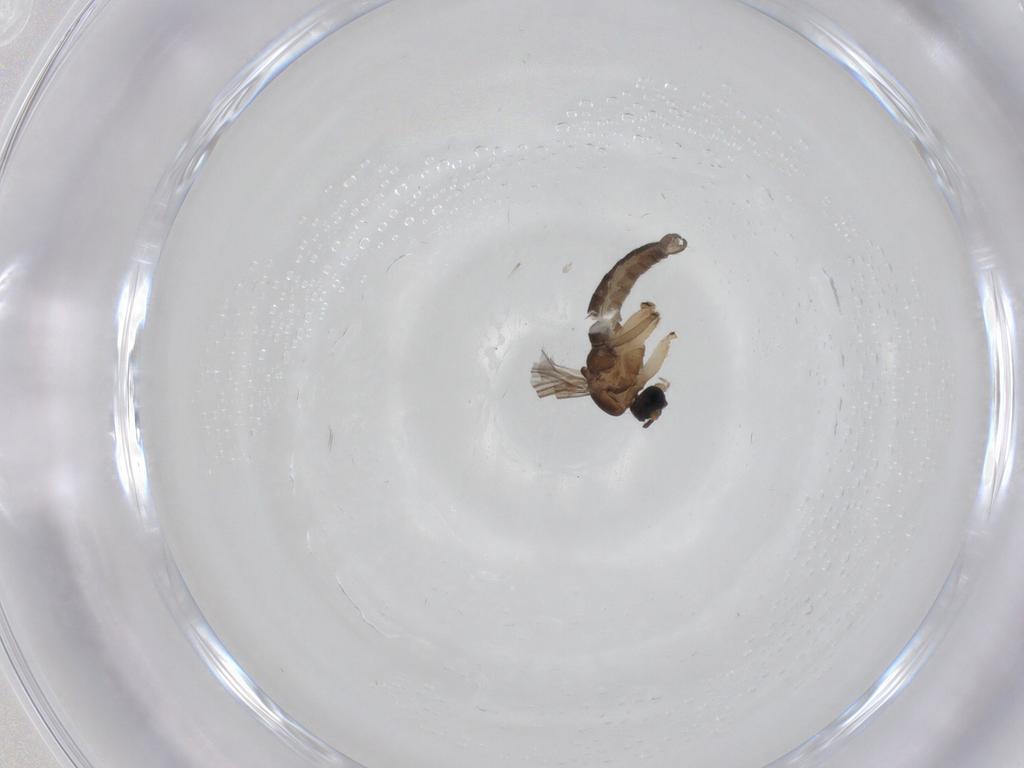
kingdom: Animalia
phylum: Arthropoda
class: Insecta
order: Diptera
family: Sciaridae
